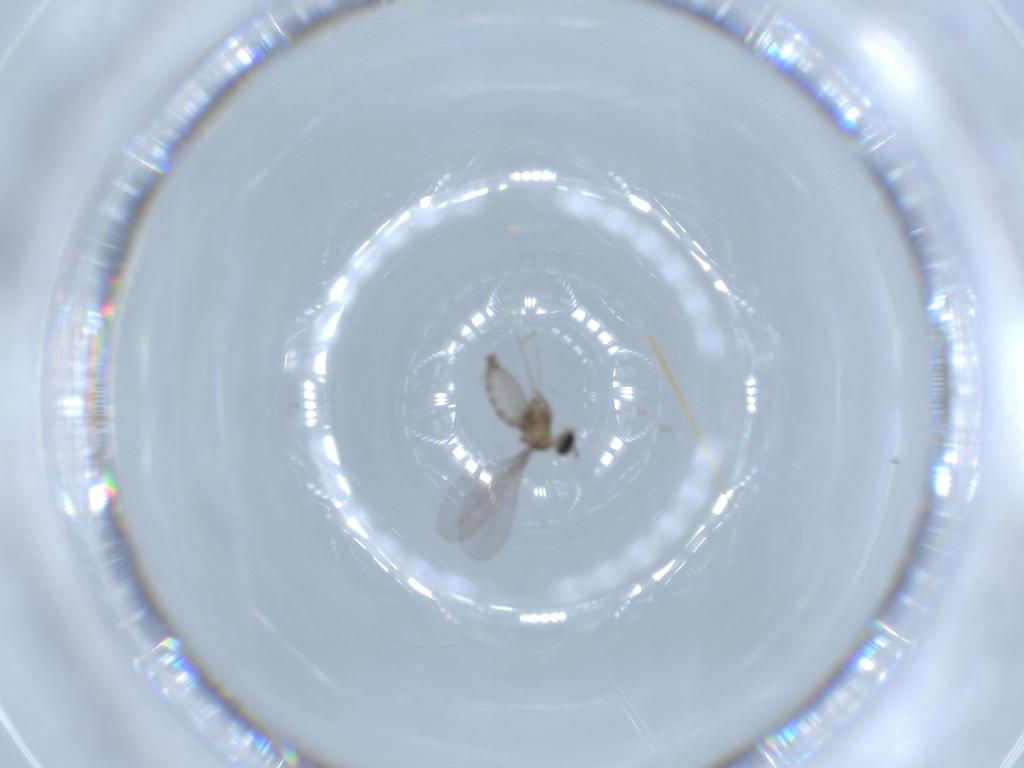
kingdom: Animalia
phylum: Arthropoda
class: Insecta
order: Diptera
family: Cecidomyiidae
